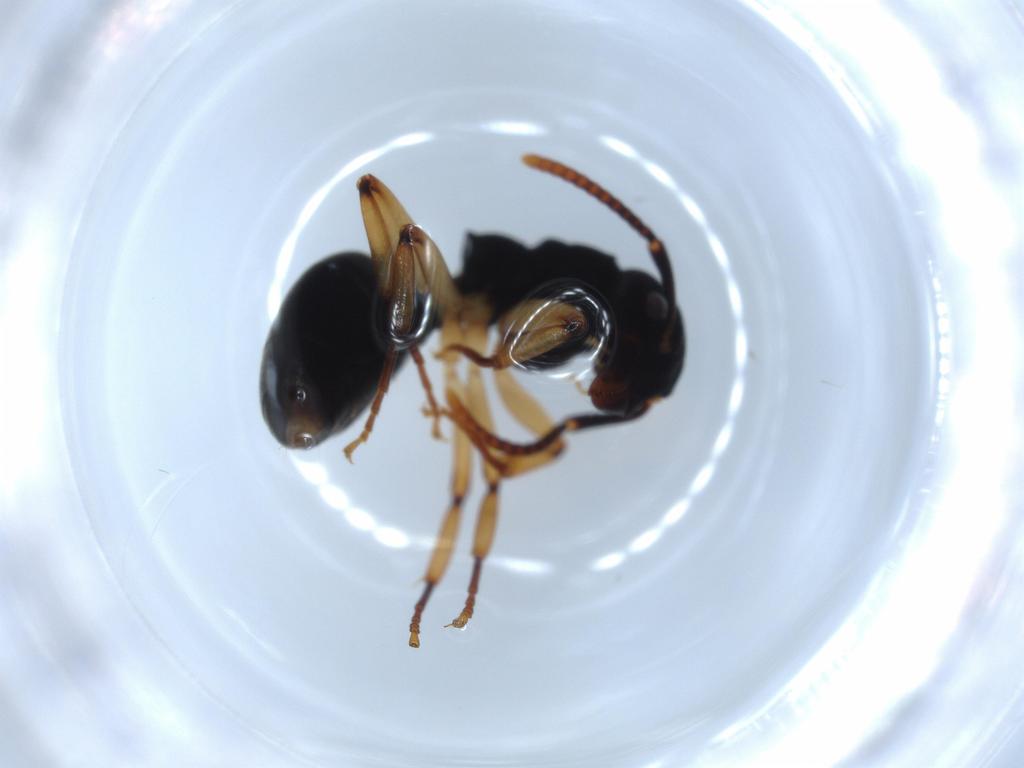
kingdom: Animalia
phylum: Arthropoda
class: Insecta
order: Hymenoptera
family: Formicidae
